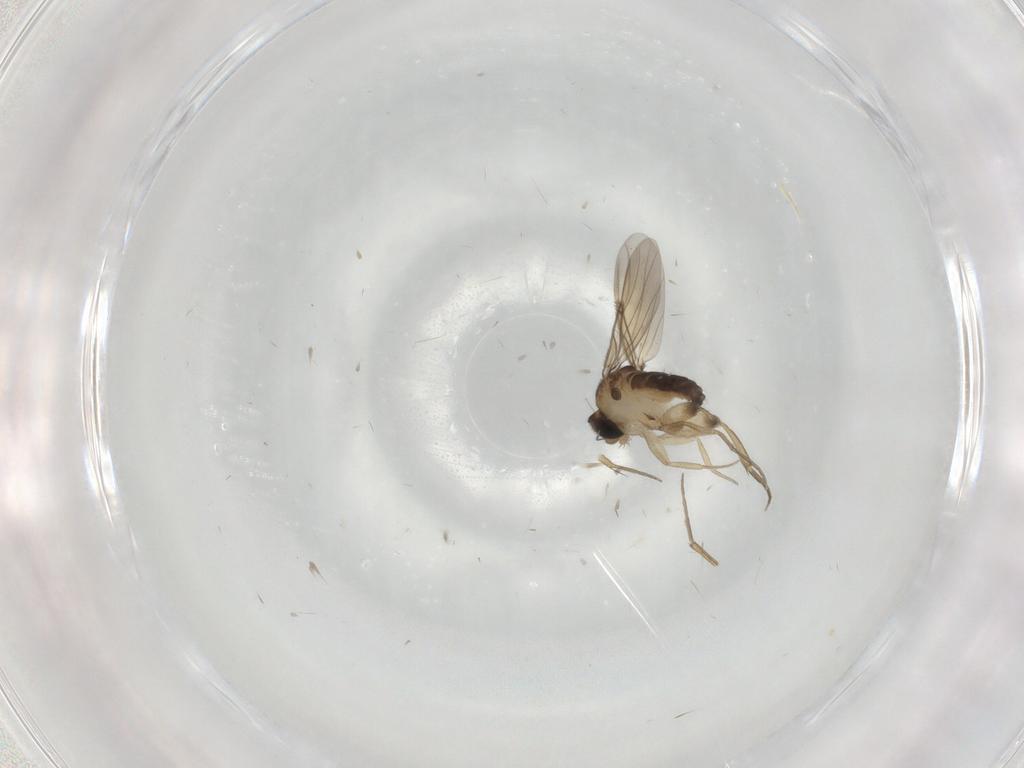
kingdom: Animalia
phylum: Arthropoda
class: Insecta
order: Diptera
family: Phoridae
